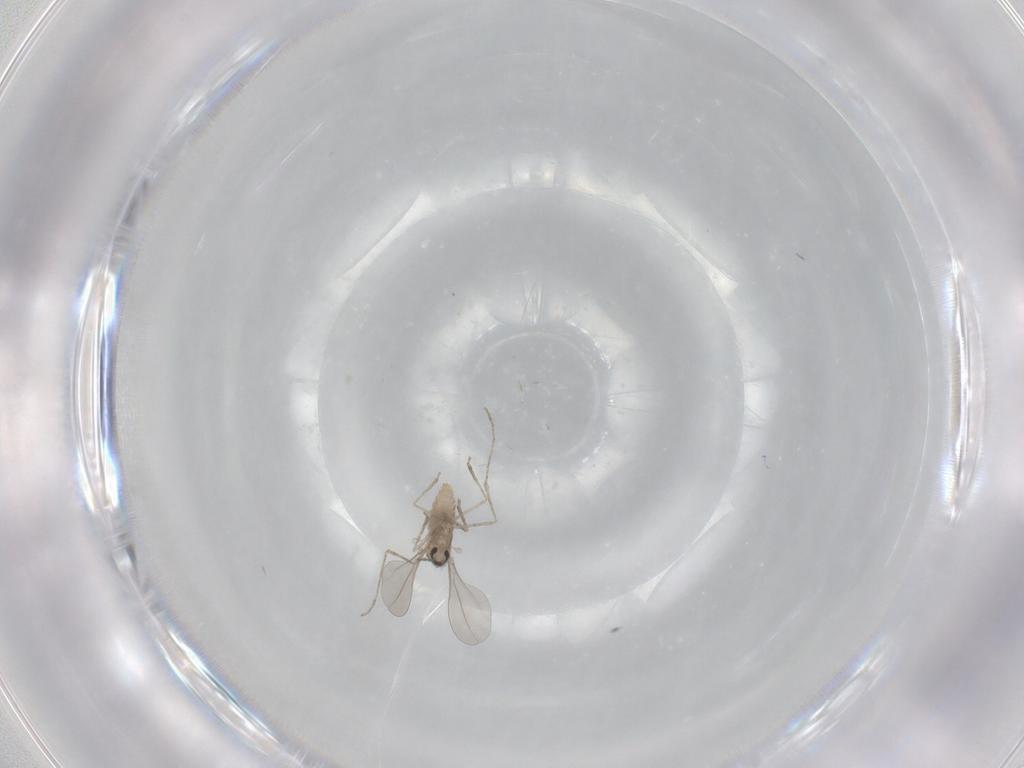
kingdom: Animalia
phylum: Arthropoda
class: Insecta
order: Diptera
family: Cecidomyiidae
